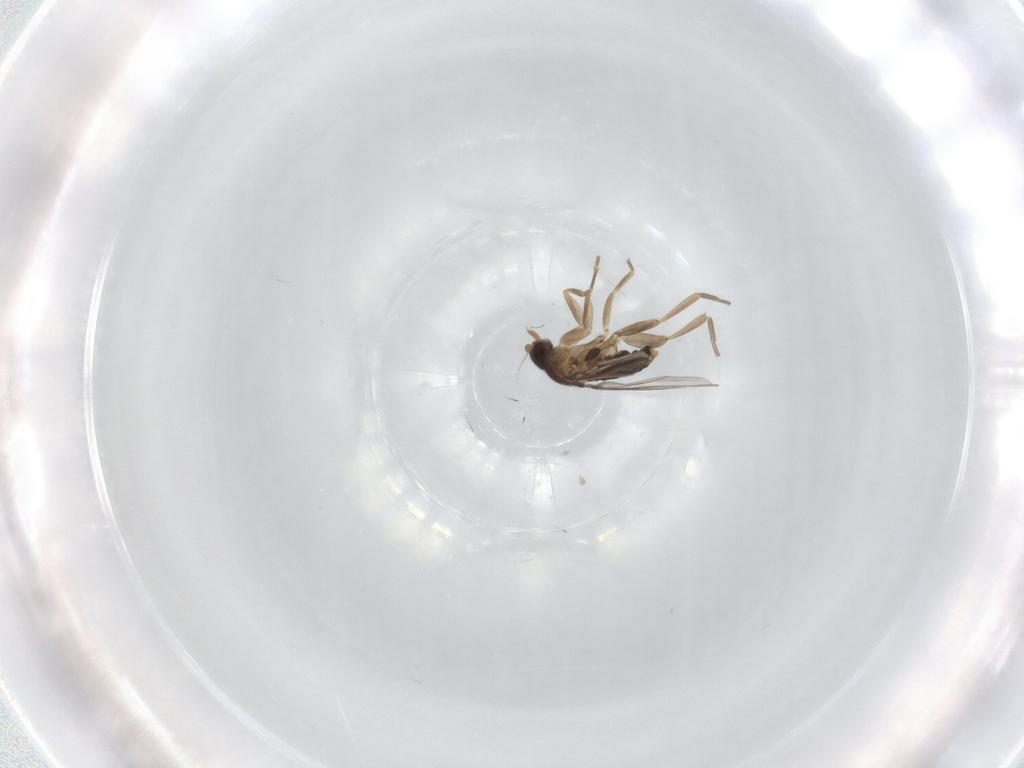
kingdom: Animalia
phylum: Arthropoda
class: Insecta
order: Diptera
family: Phoridae
